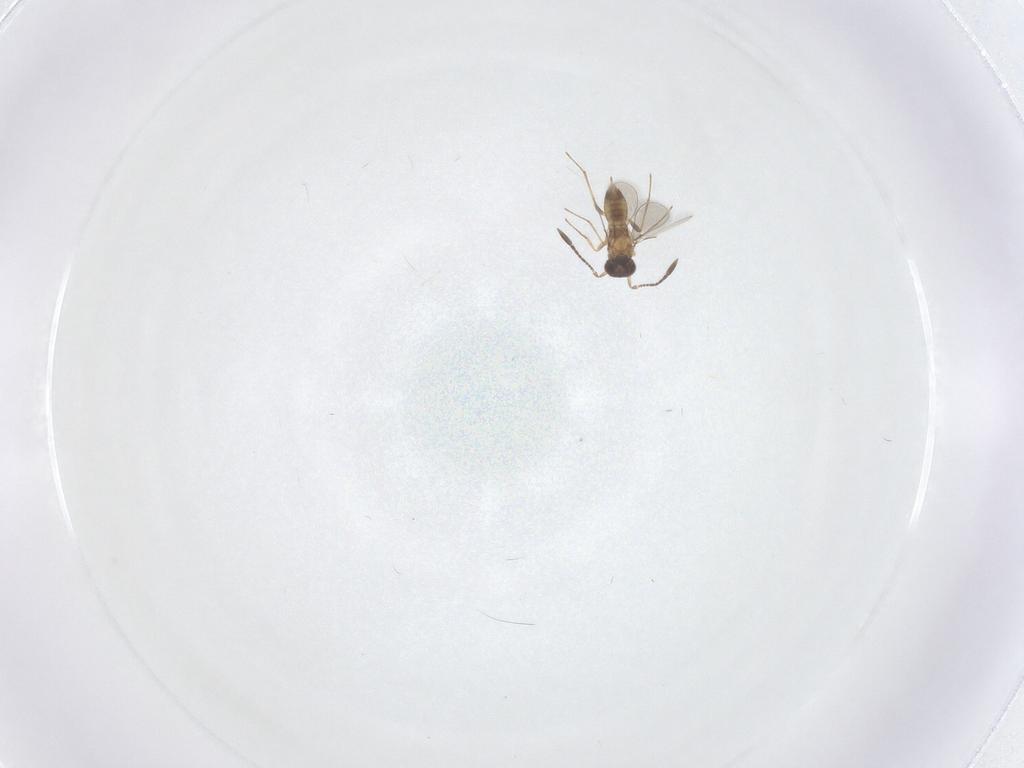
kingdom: Animalia
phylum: Arthropoda
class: Insecta
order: Hymenoptera
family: Mymaridae
